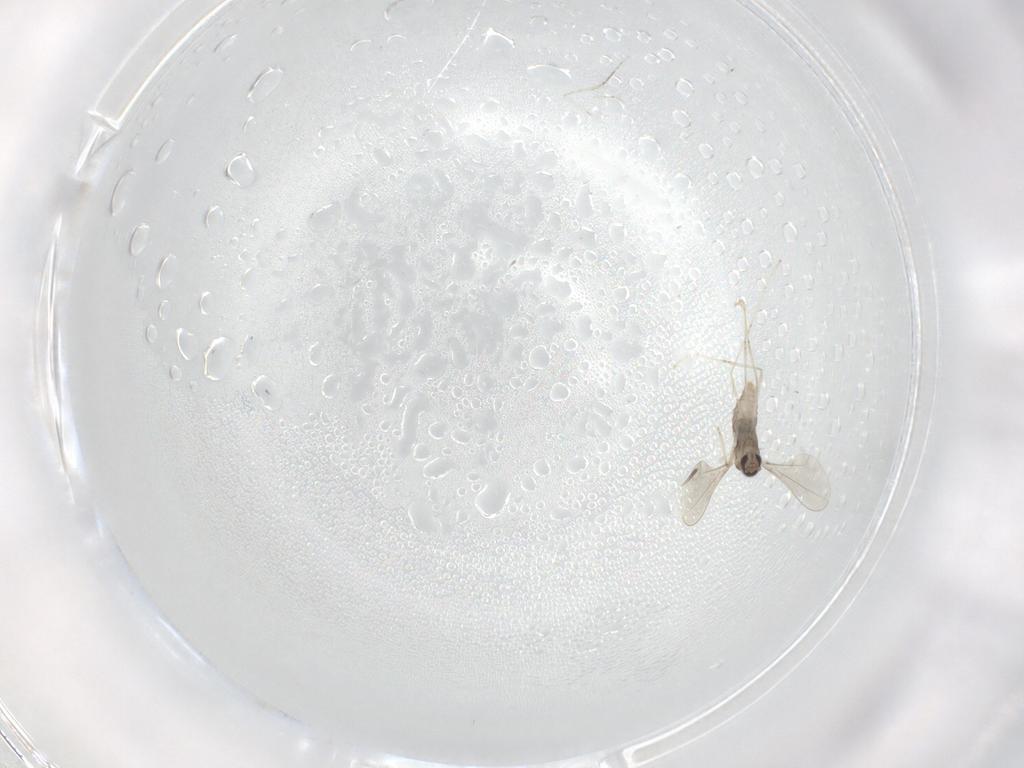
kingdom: Animalia
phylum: Arthropoda
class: Insecta
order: Diptera
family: Cecidomyiidae
